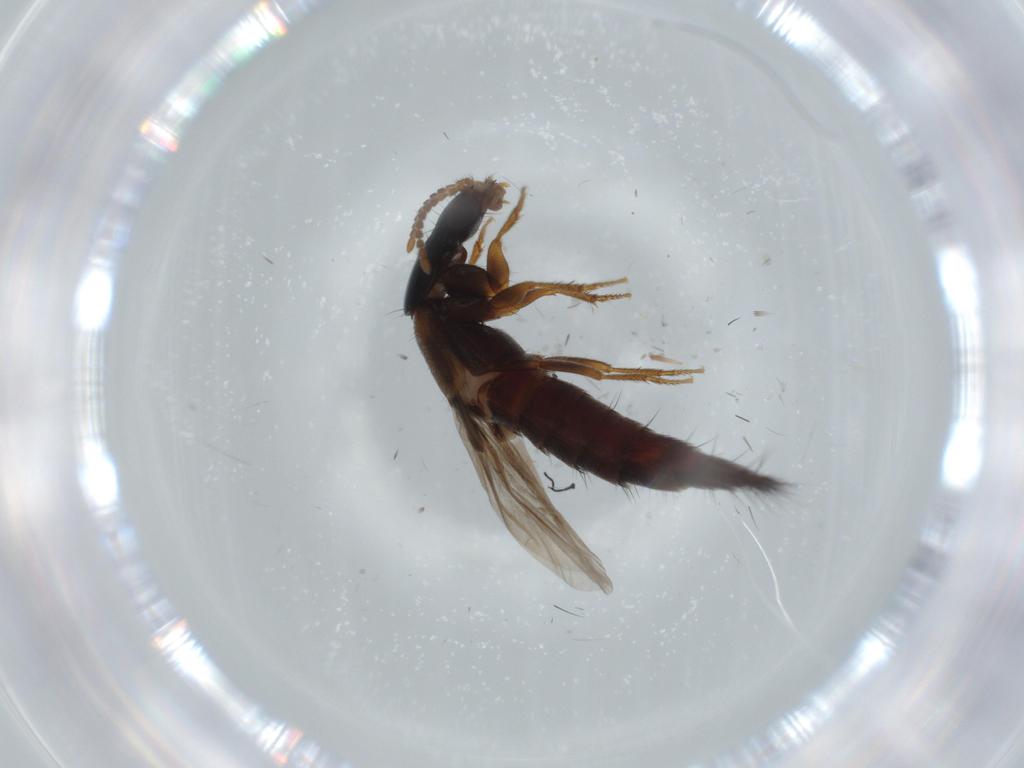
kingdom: Animalia
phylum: Arthropoda
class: Insecta
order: Coleoptera
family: Staphylinidae
